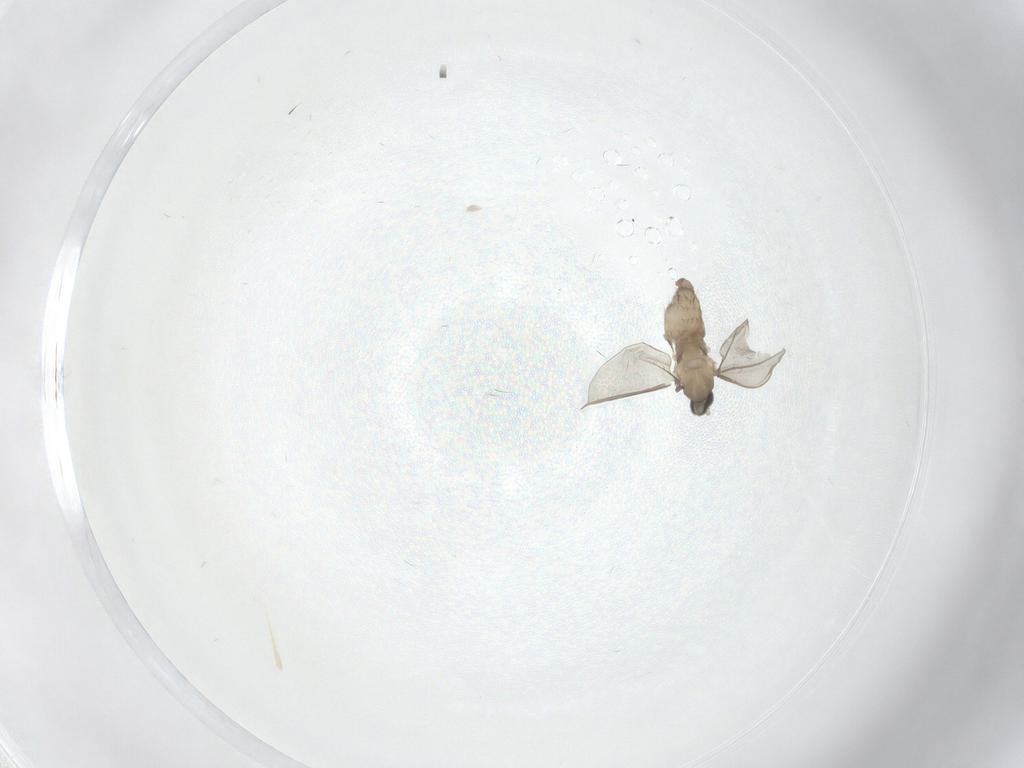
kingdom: Animalia
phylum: Arthropoda
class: Insecta
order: Diptera
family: Cecidomyiidae
